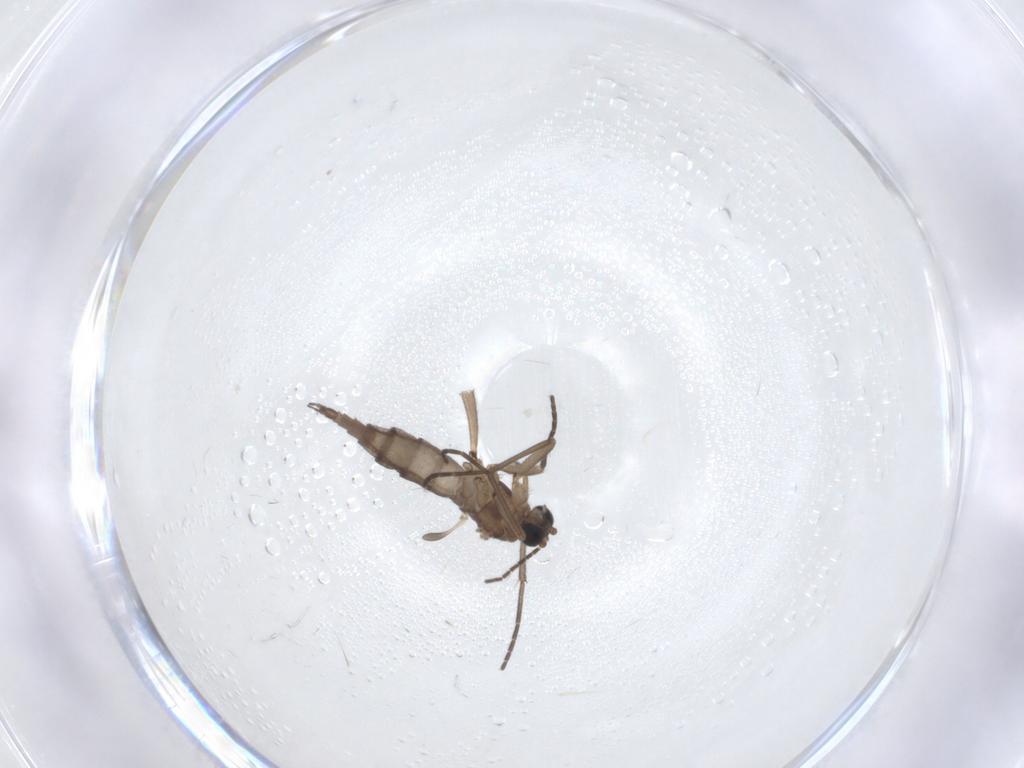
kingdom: Animalia
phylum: Arthropoda
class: Insecta
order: Diptera
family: Sciaridae
